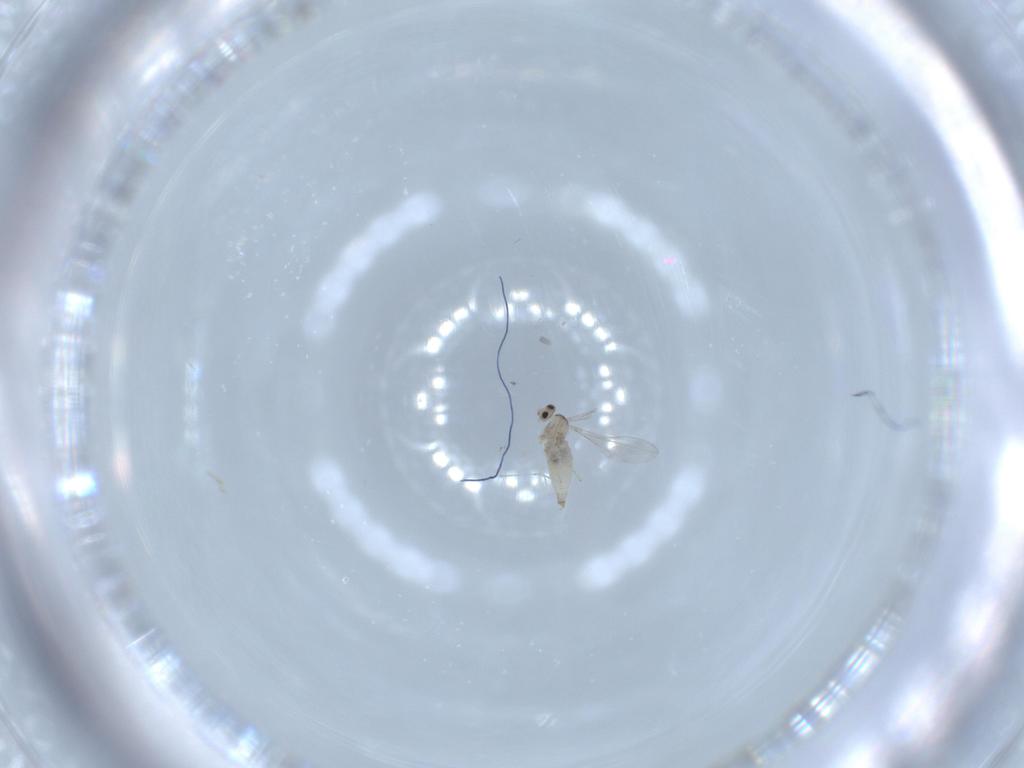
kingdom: Animalia
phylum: Arthropoda
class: Insecta
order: Diptera
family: Cecidomyiidae
